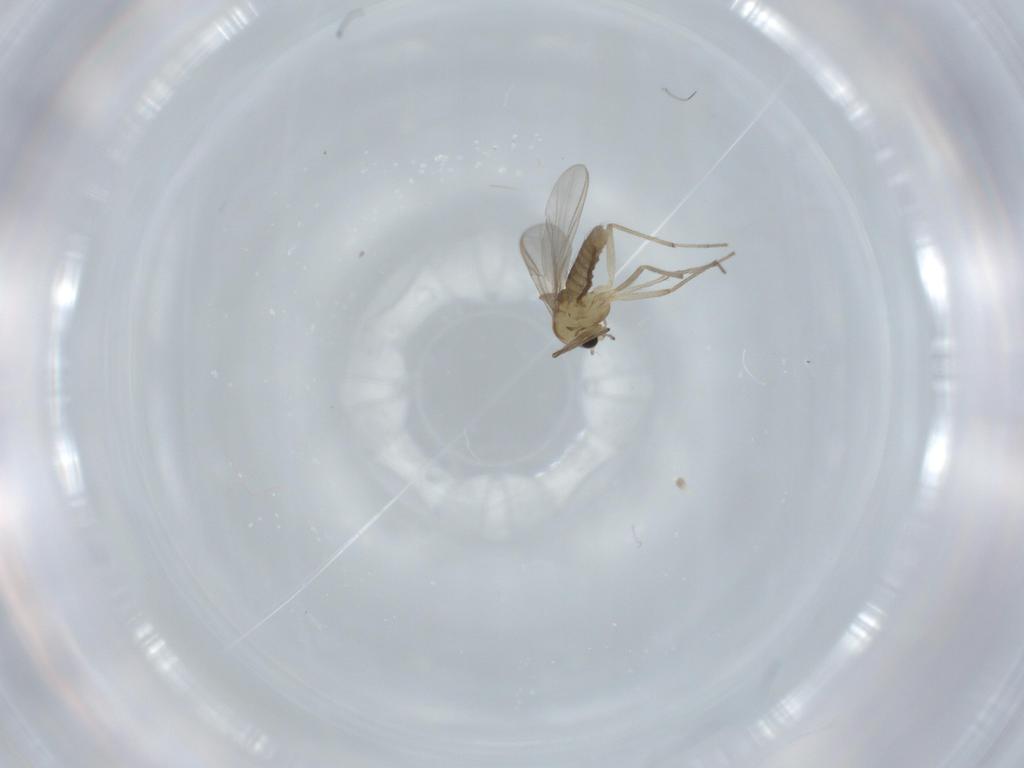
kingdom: Animalia
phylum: Arthropoda
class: Insecta
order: Diptera
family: Chironomidae
